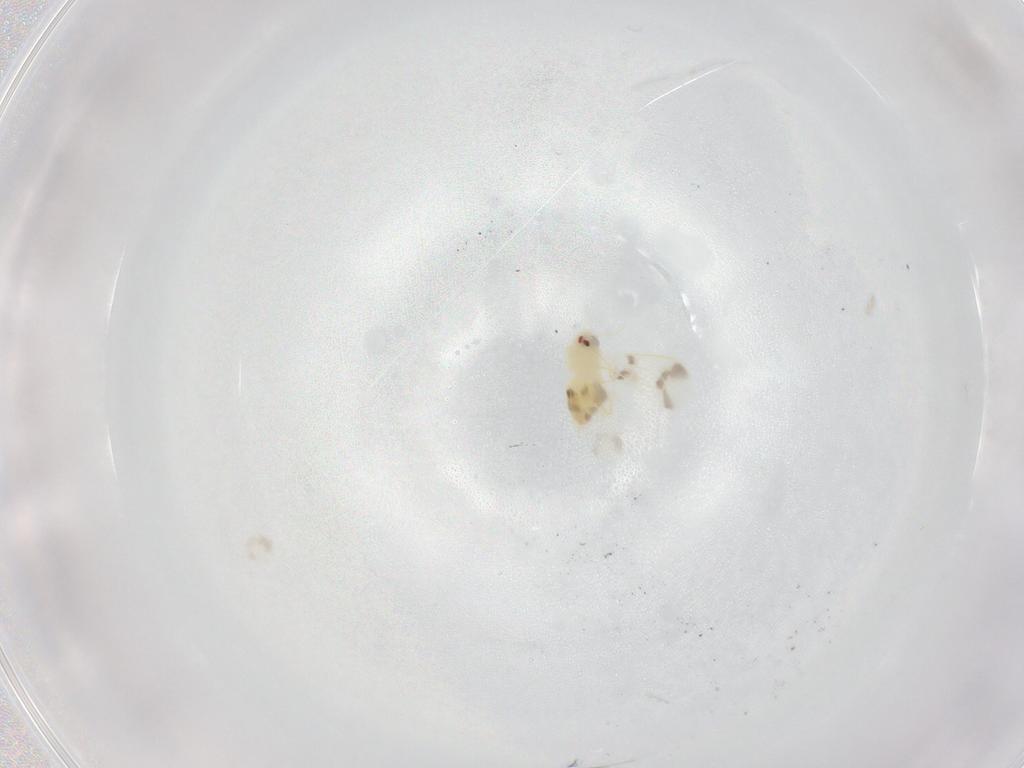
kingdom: Animalia
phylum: Arthropoda
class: Insecta
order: Hemiptera
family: Aleyrodidae
